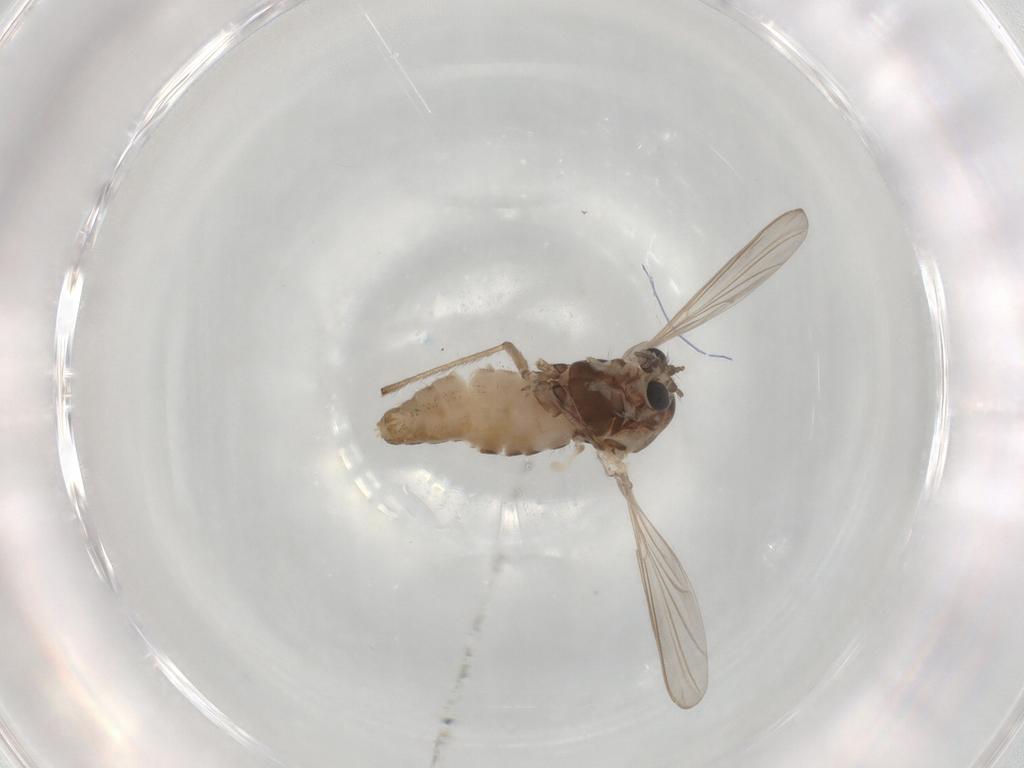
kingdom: Animalia
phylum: Arthropoda
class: Insecta
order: Diptera
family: Chironomidae
